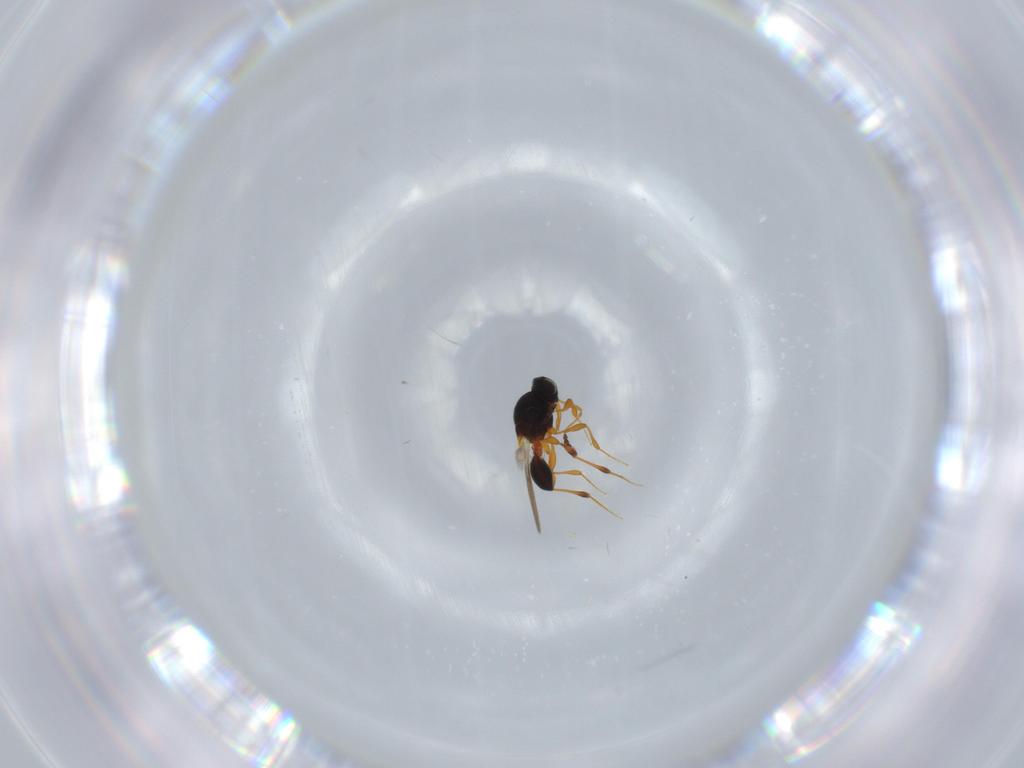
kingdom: Animalia
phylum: Arthropoda
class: Insecta
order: Hymenoptera
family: Platygastridae
